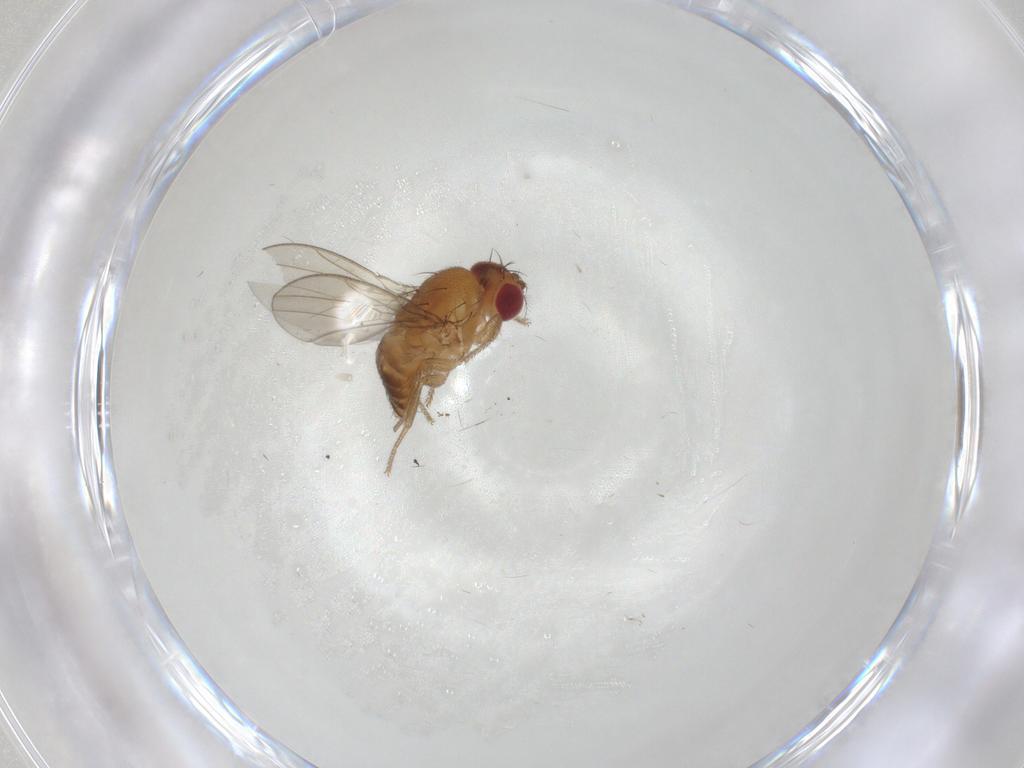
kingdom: Animalia
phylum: Arthropoda
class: Insecta
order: Diptera
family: Drosophilidae
